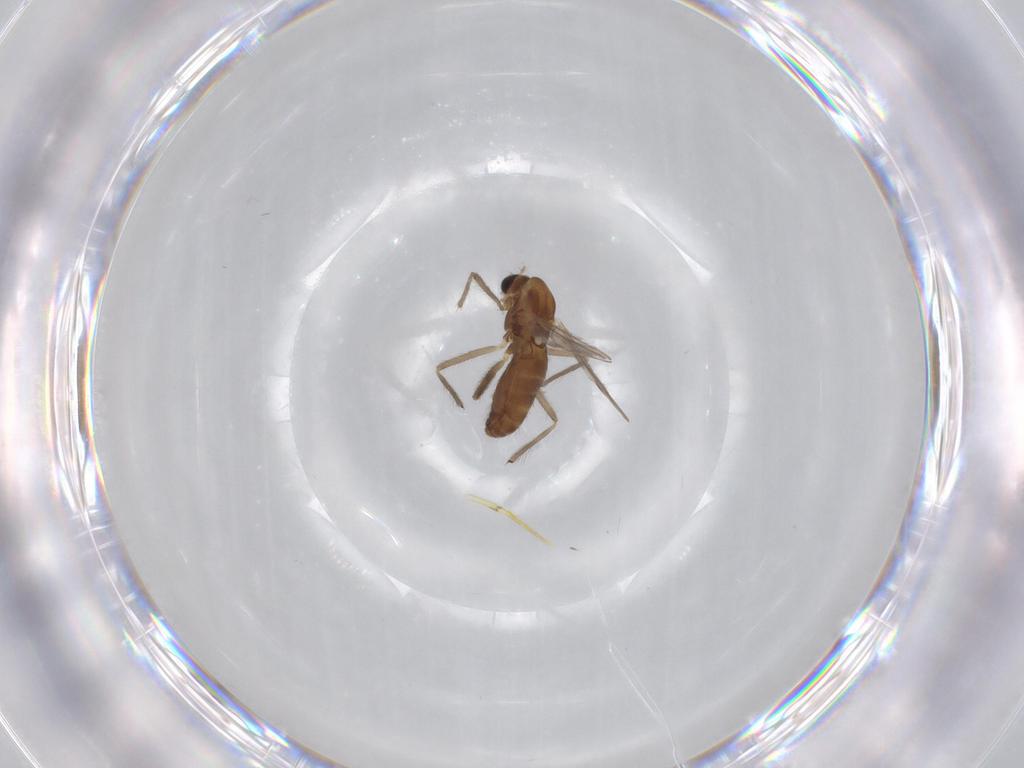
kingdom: Animalia
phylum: Arthropoda
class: Insecta
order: Diptera
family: Chironomidae
